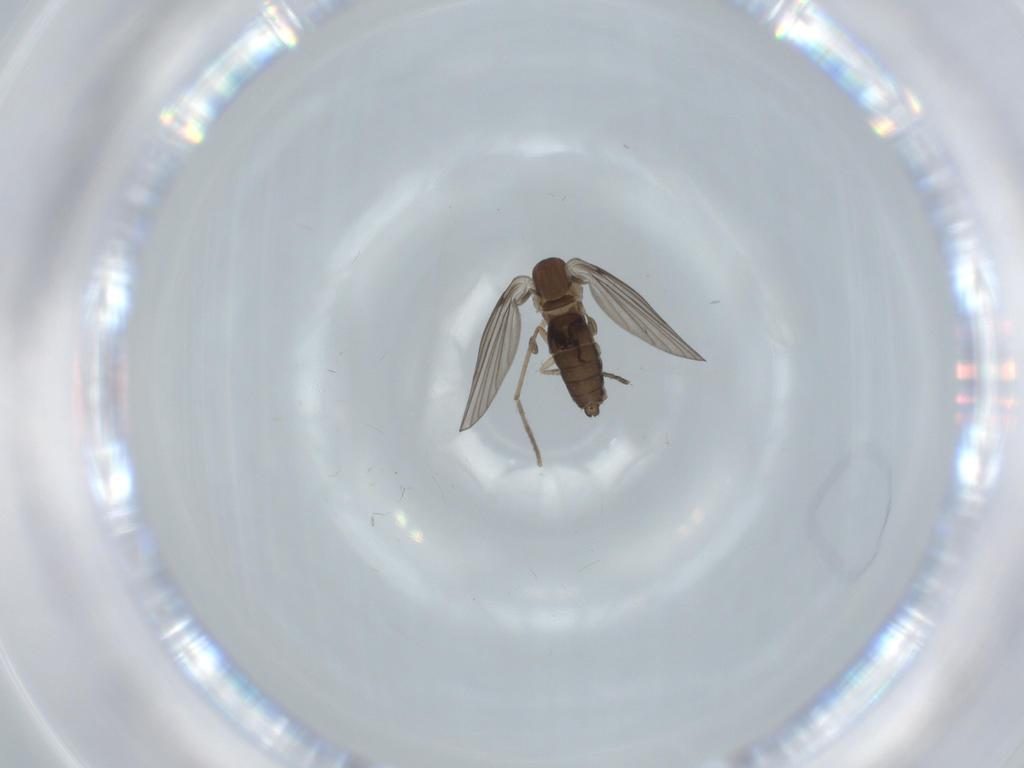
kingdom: Animalia
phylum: Arthropoda
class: Insecta
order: Diptera
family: Psychodidae
